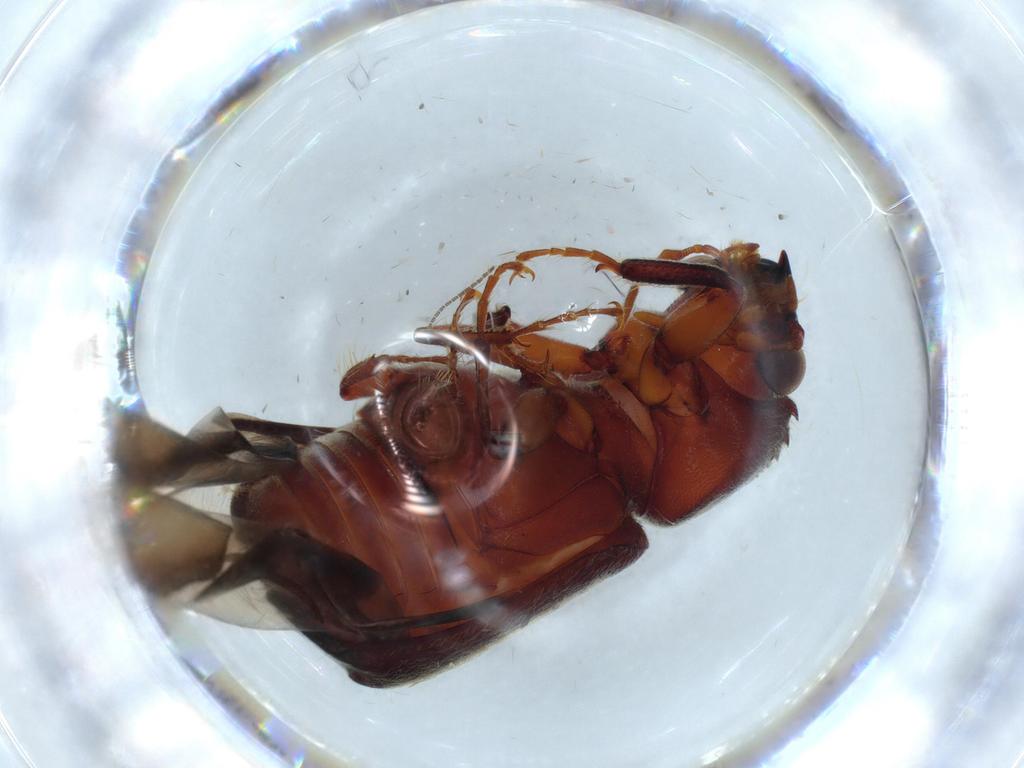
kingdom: Animalia
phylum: Arthropoda
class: Insecta
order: Coleoptera
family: Bostrichidae
